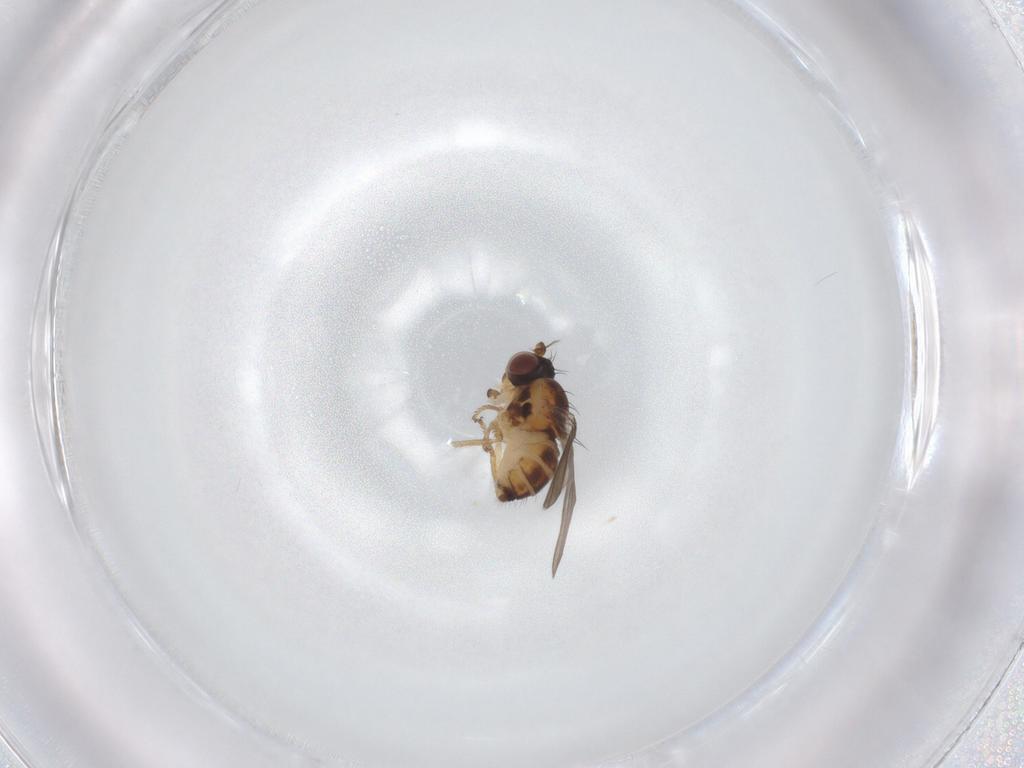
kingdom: Animalia
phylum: Arthropoda
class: Insecta
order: Diptera
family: Ephydridae
